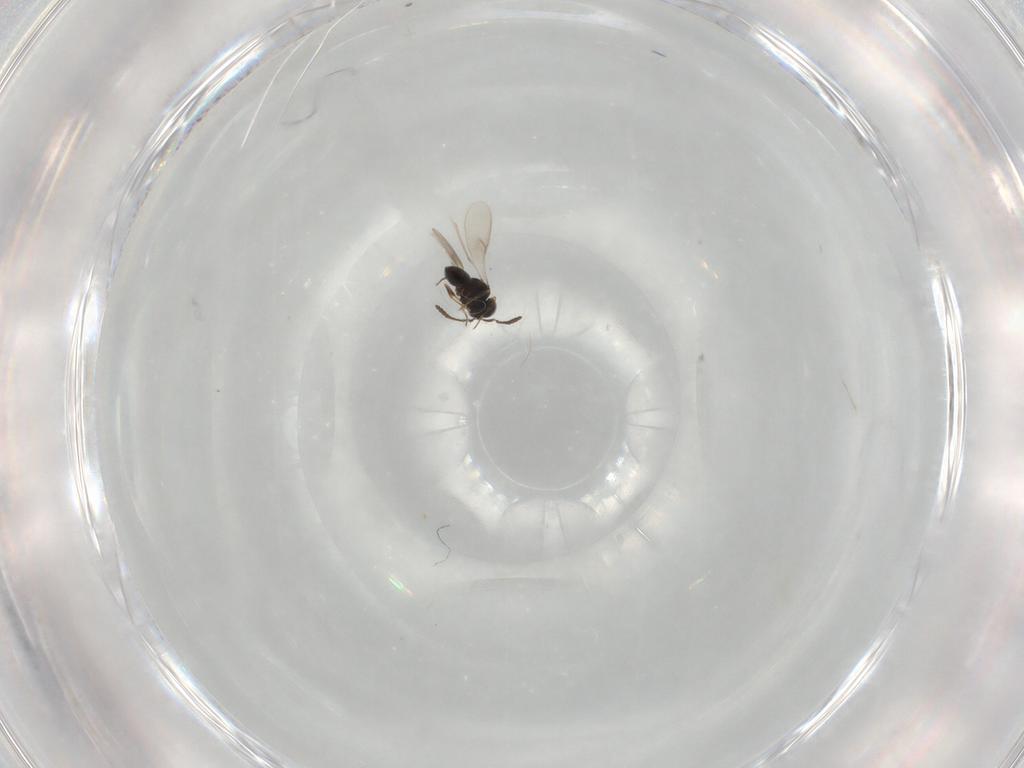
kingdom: Animalia
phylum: Arthropoda
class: Insecta
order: Hymenoptera
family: Scelionidae
